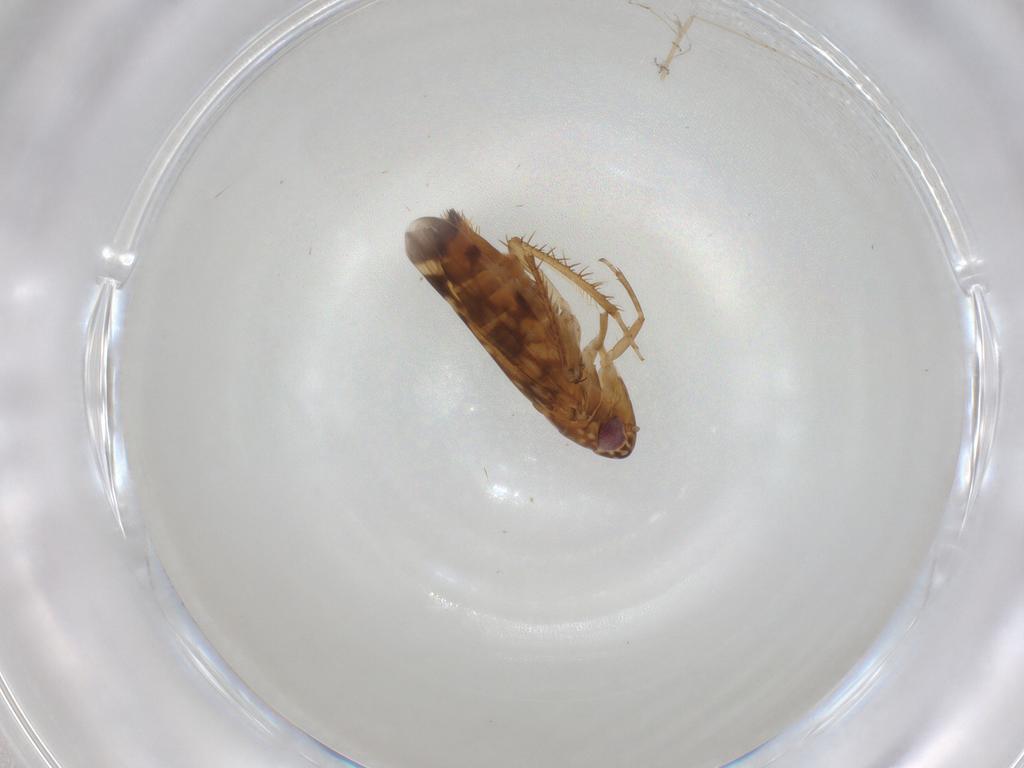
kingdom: Animalia
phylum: Arthropoda
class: Insecta
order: Hemiptera
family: Cicadellidae
